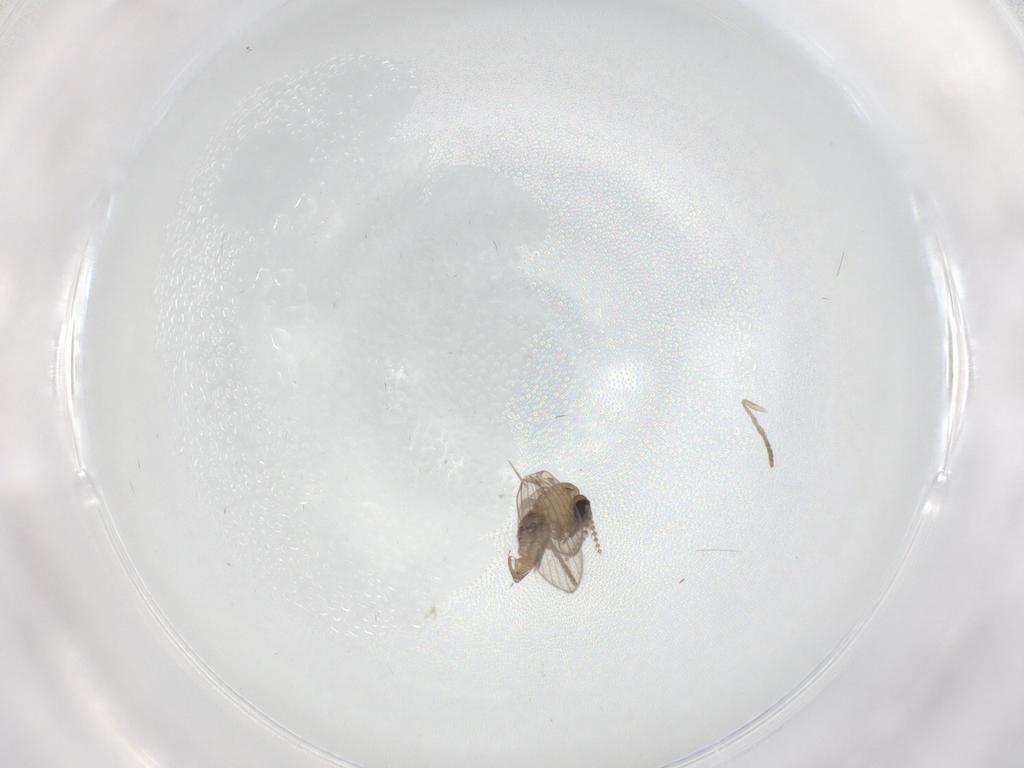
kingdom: Animalia
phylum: Arthropoda
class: Insecta
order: Diptera
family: Psychodidae
